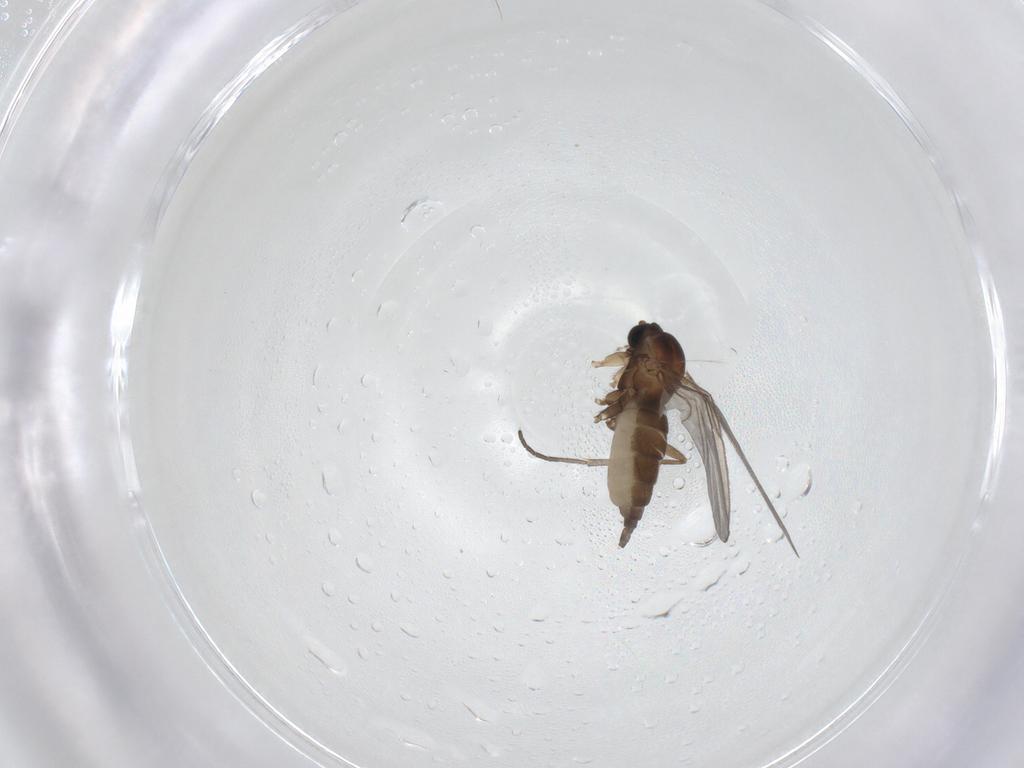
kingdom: Animalia
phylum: Arthropoda
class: Insecta
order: Diptera
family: Sciaridae
